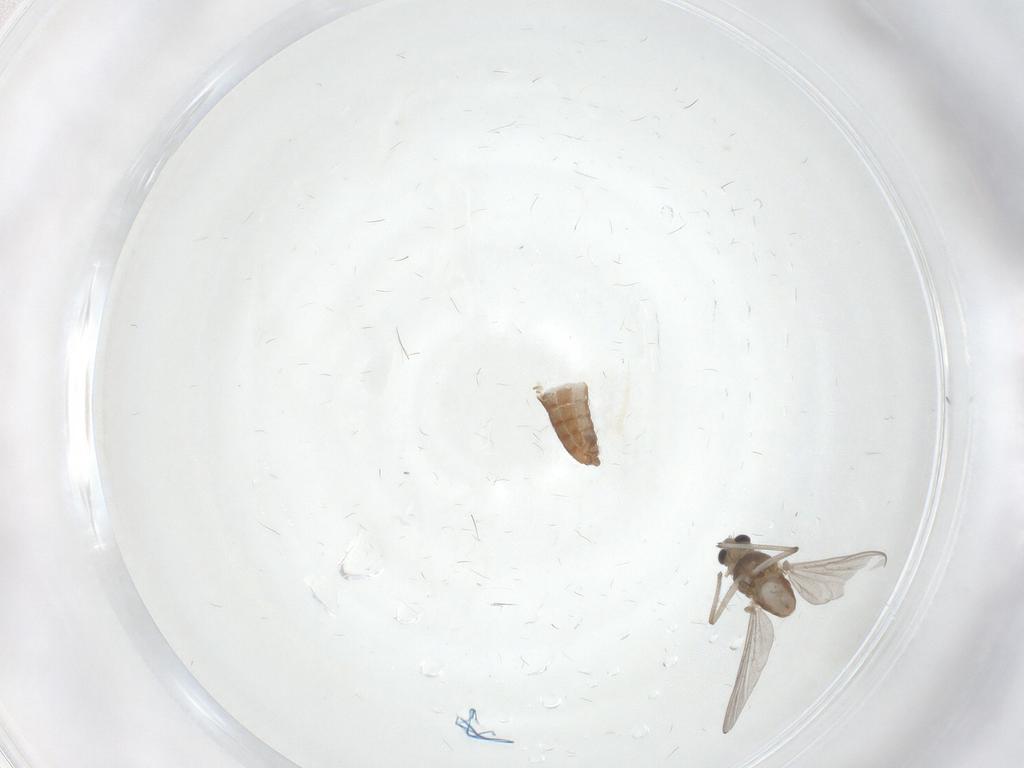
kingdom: Animalia
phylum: Arthropoda
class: Insecta
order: Diptera
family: Chironomidae
